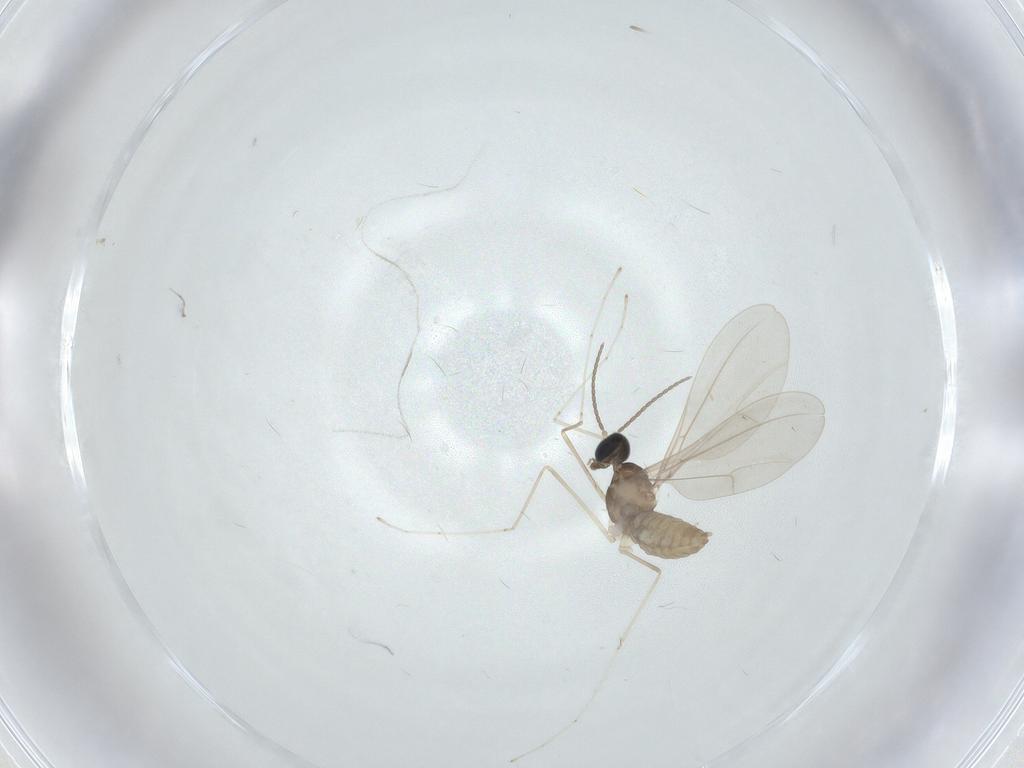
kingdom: Animalia
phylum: Arthropoda
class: Insecta
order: Diptera
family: Cecidomyiidae
